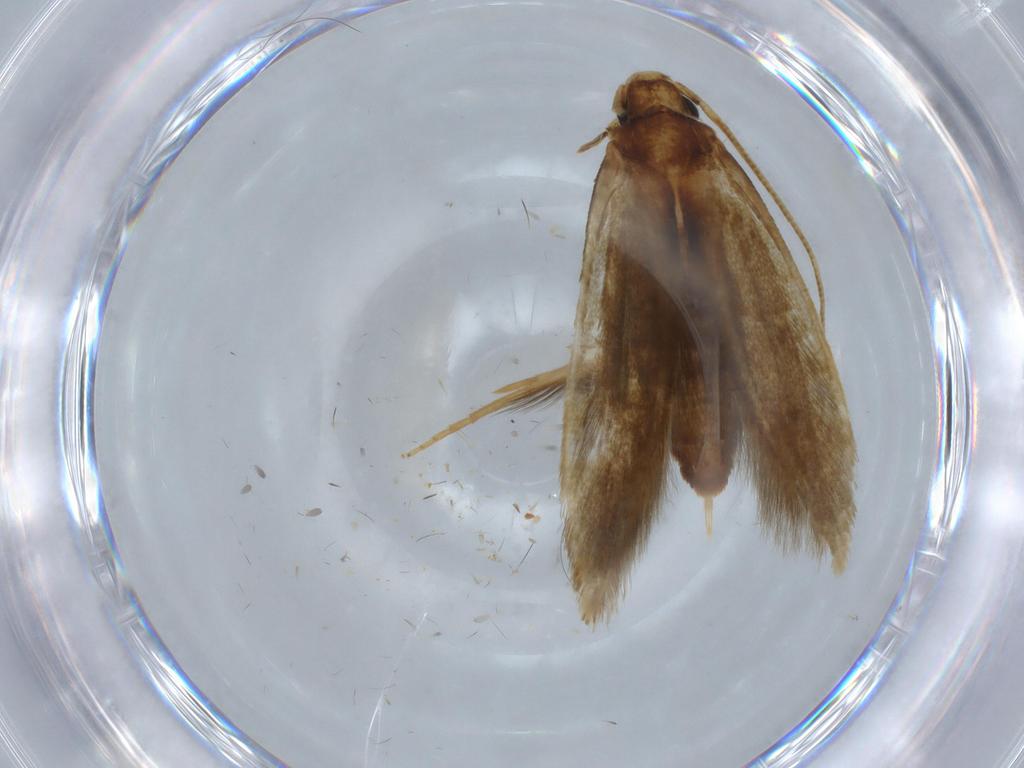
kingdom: Animalia
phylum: Arthropoda
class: Insecta
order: Lepidoptera
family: Tineidae
